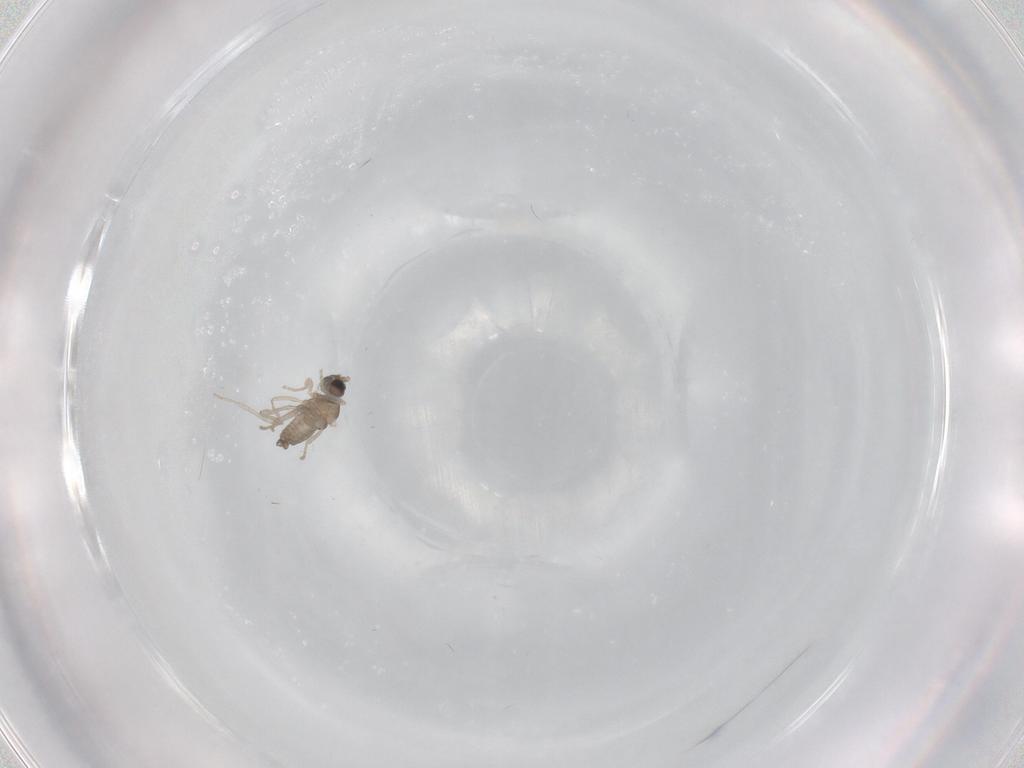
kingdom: Animalia
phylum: Arthropoda
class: Insecta
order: Diptera
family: Cecidomyiidae
